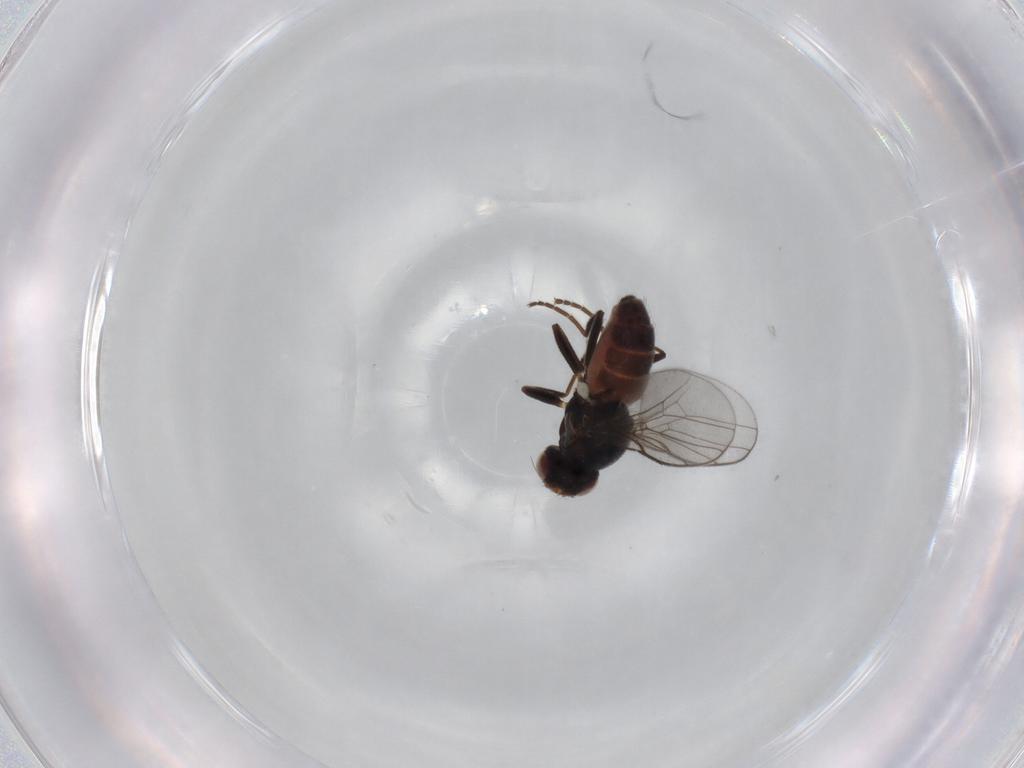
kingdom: Animalia
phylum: Arthropoda
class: Insecta
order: Diptera
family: Chloropidae
